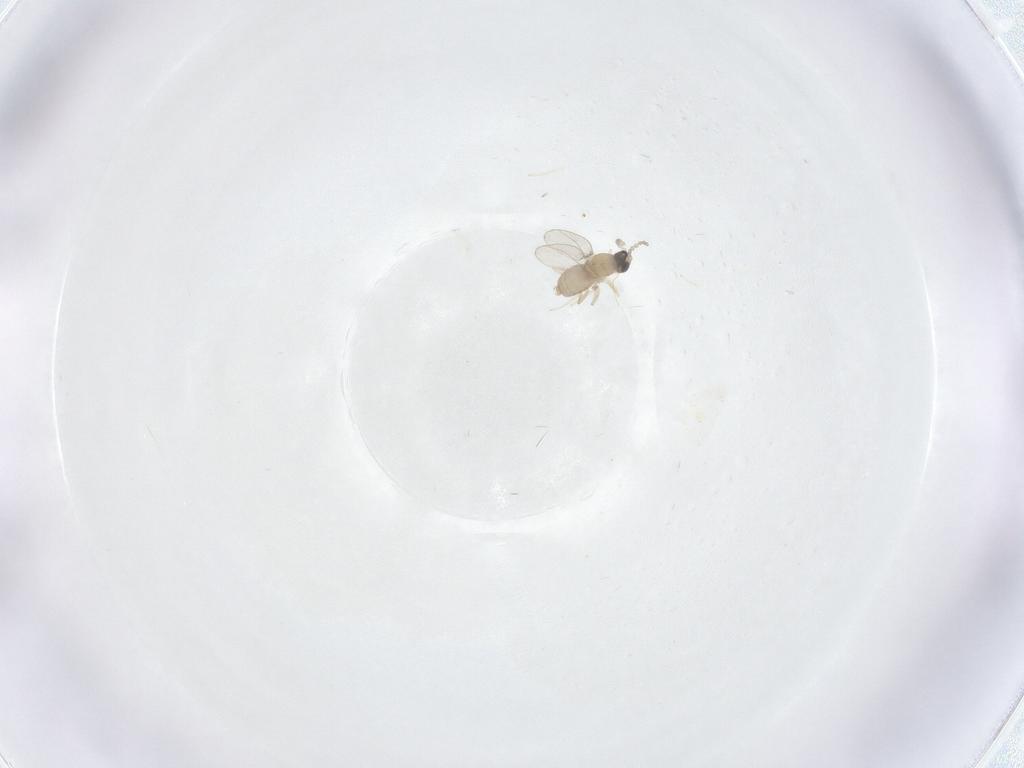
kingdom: Animalia
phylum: Arthropoda
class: Insecta
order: Diptera
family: Cecidomyiidae
